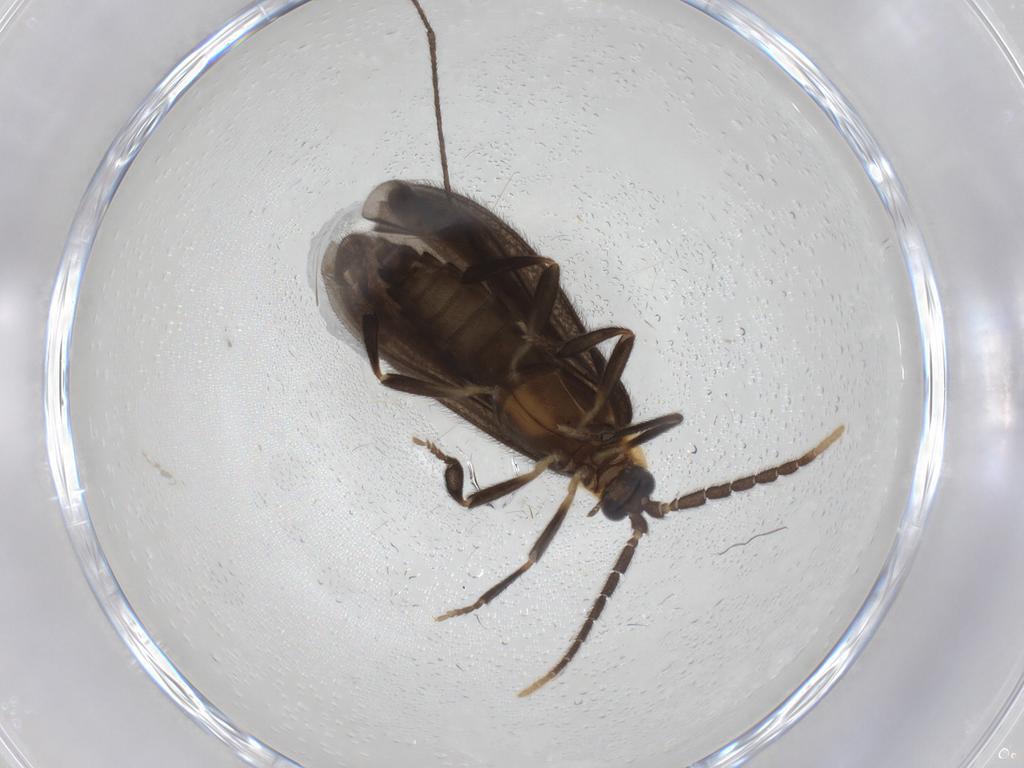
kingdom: Animalia
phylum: Arthropoda
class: Insecta
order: Coleoptera
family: Lycidae
